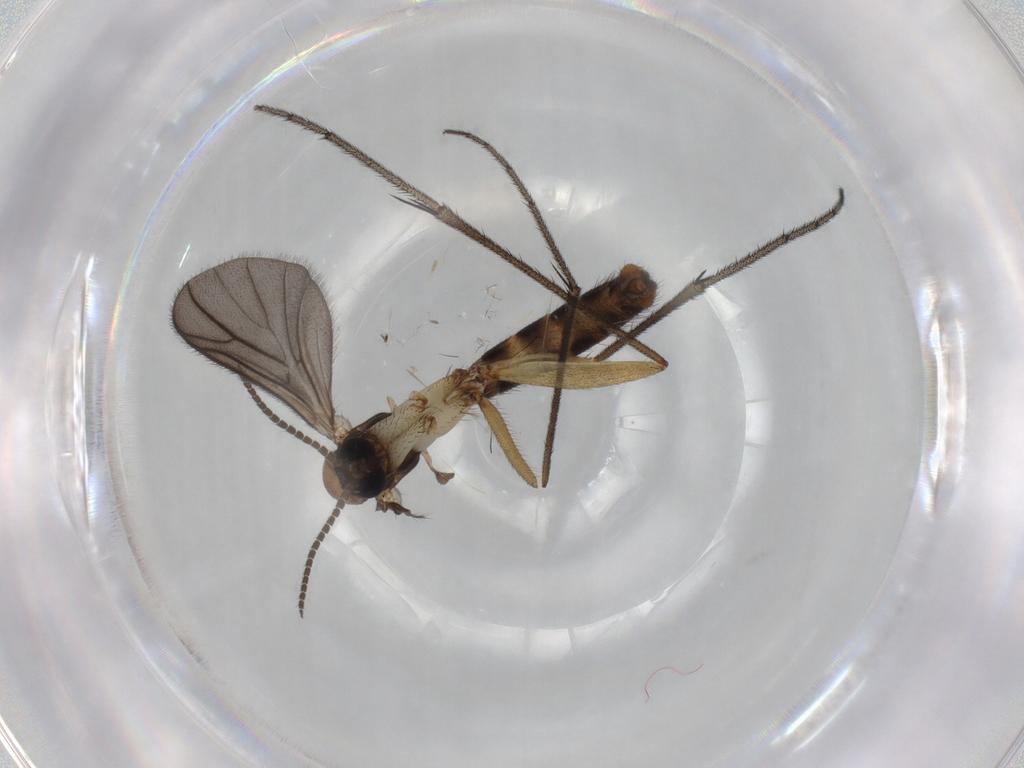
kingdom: Animalia
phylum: Arthropoda
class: Insecta
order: Diptera
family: Ditomyiidae
